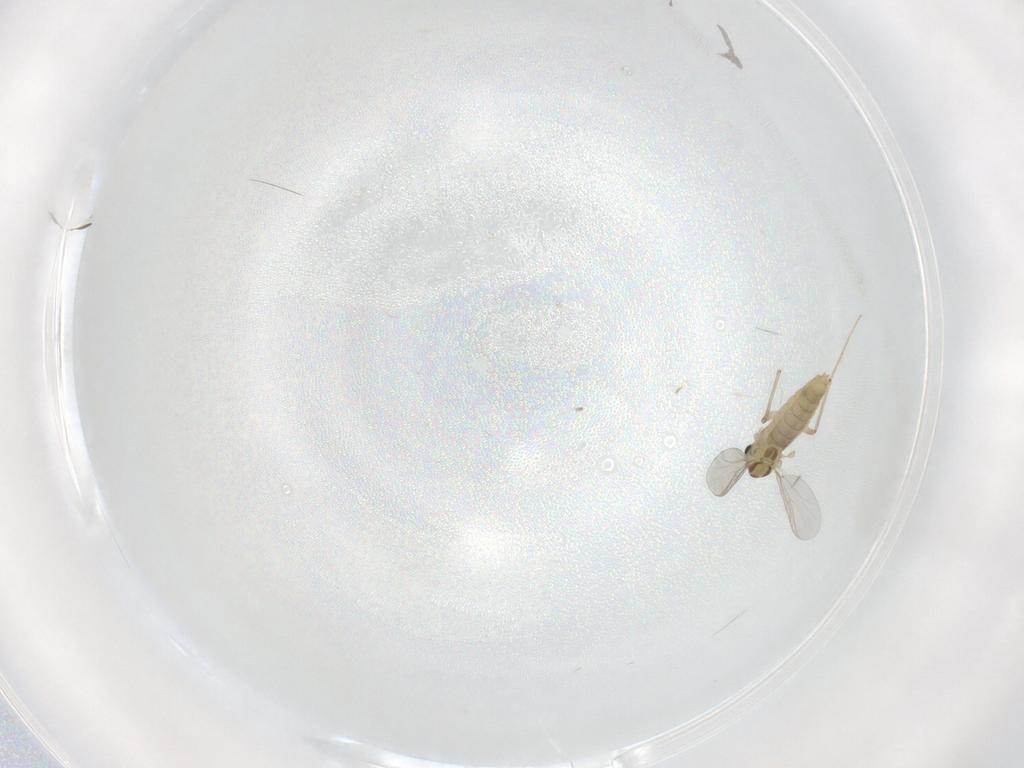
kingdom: Animalia
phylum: Arthropoda
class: Insecta
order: Diptera
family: Chironomidae
